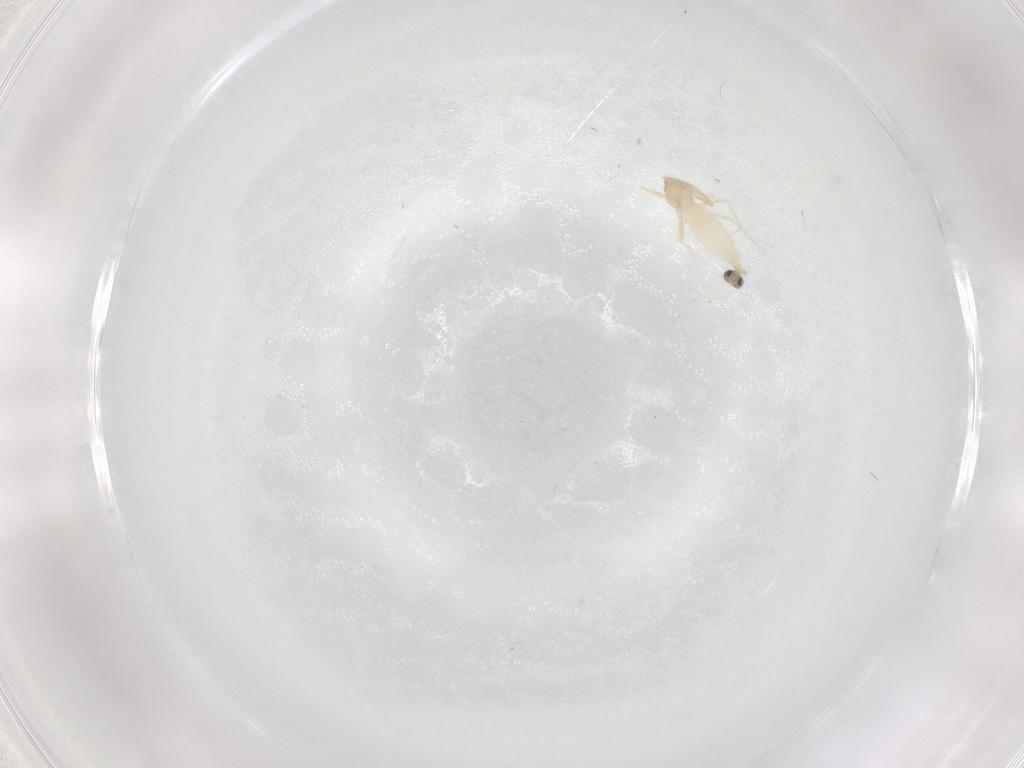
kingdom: Animalia
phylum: Arthropoda
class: Insecta
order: Diptera
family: Cecidomyiidae
